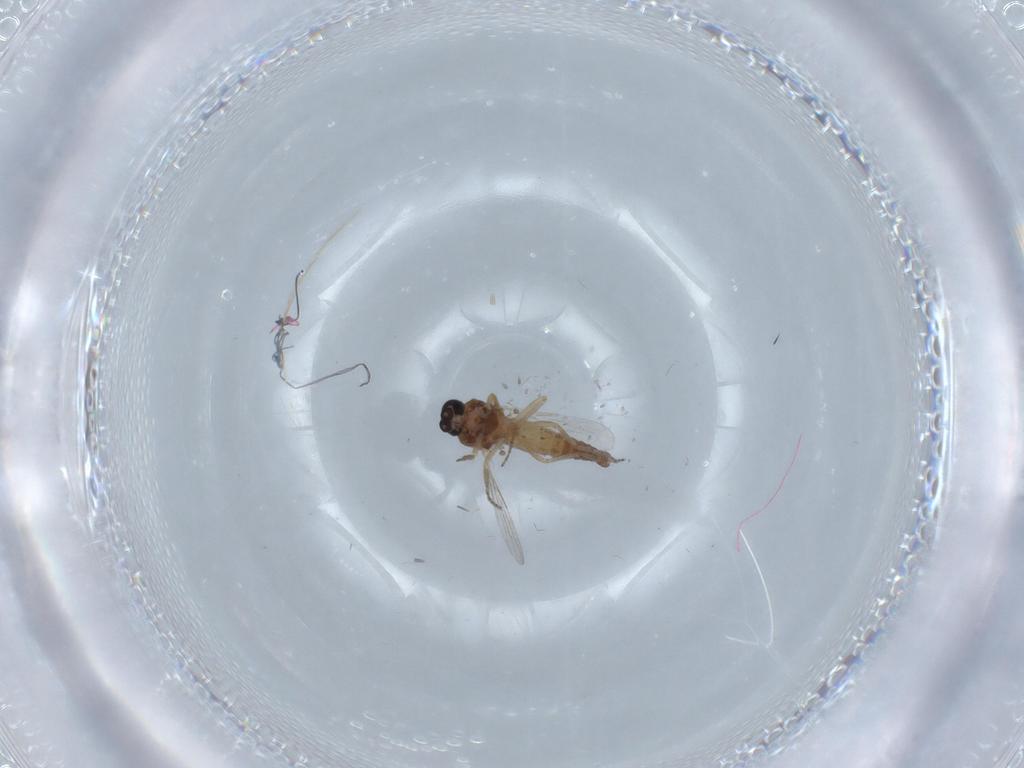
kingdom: Animalia
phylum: Arthropoda
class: Insecta
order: Diptera
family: Ceratopogonidae
